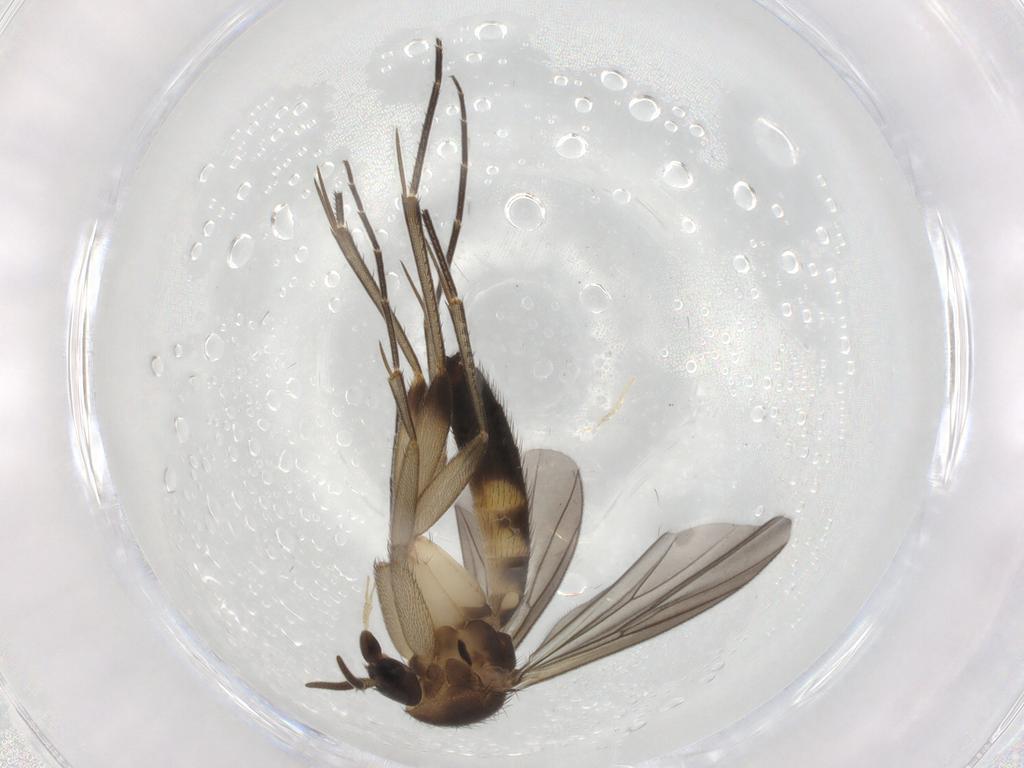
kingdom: Animalia
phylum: Arthropoda
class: Insecta
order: Diptera
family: Mycetophilidae
